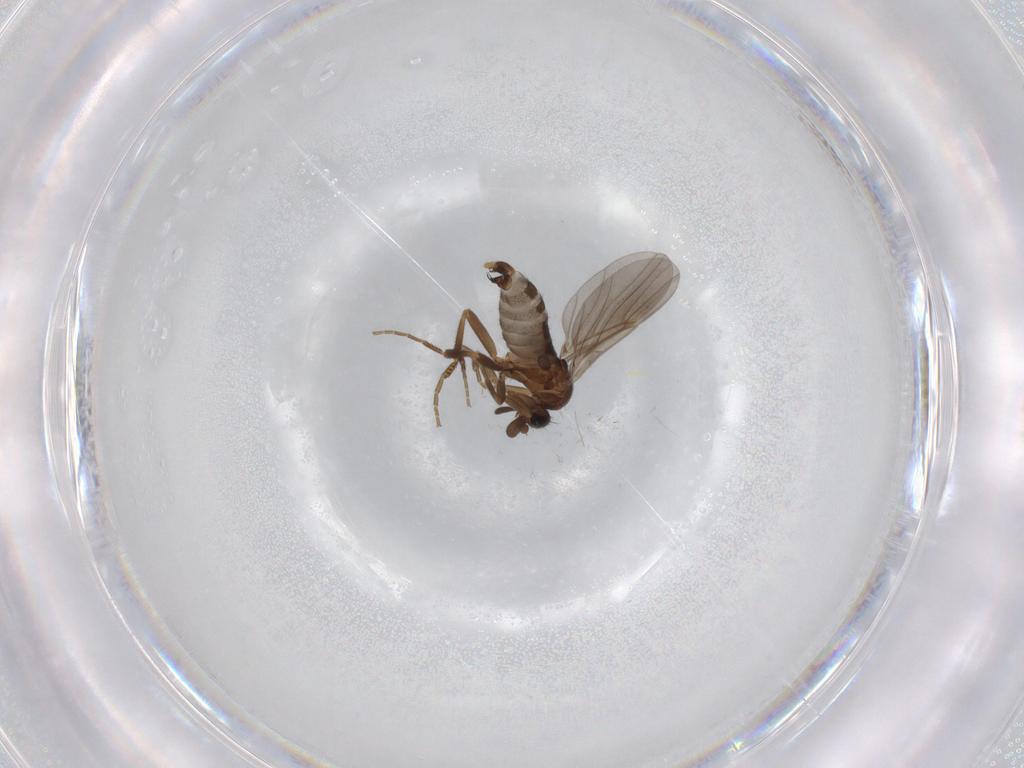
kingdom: Animalia
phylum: Arthropoda
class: Insecta
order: Diptera
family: Phoridae
